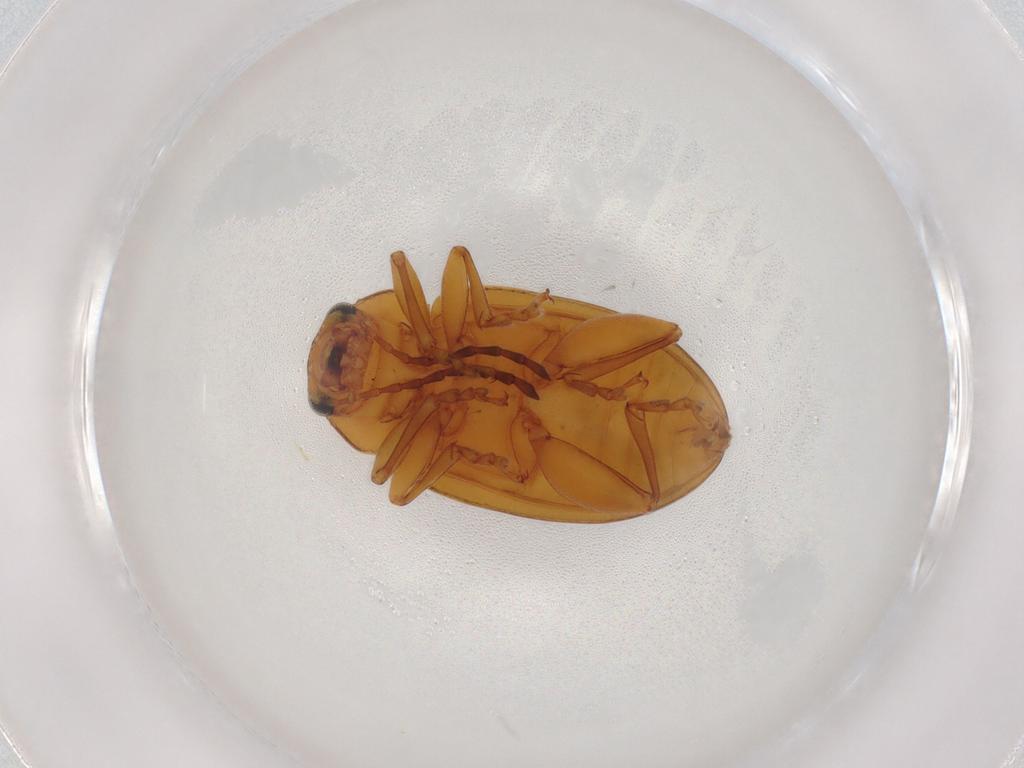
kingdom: Animalia
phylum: Arthropoda
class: Insecta
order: Coleoptera
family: Chrysomelidae
